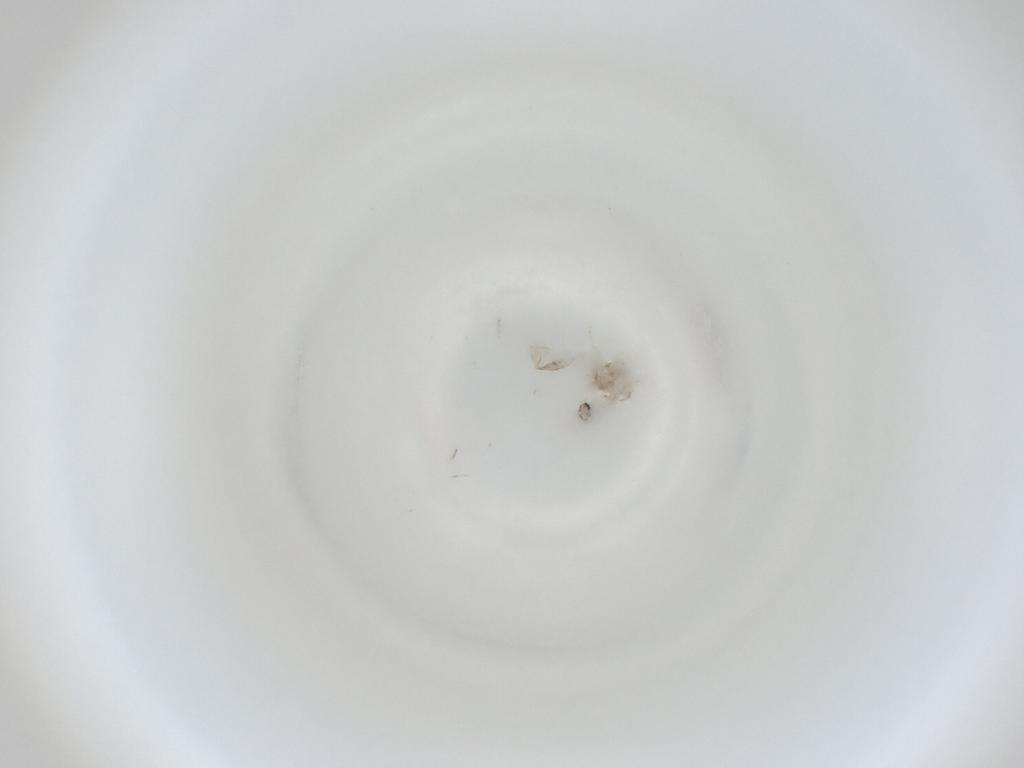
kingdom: Animalia
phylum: Arthropoda
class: Insecta
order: Diptera
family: Cecidomyiidae
